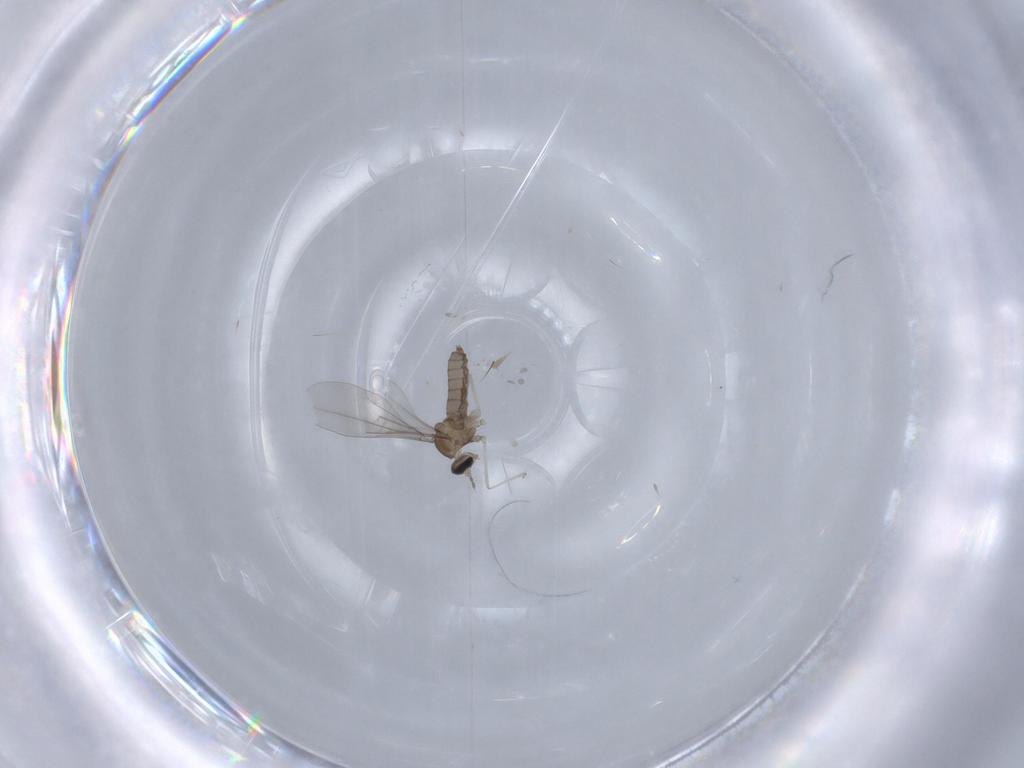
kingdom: Animalia
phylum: Arthropoda
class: Insecta
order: Diptera
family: Cecidomyiidae
